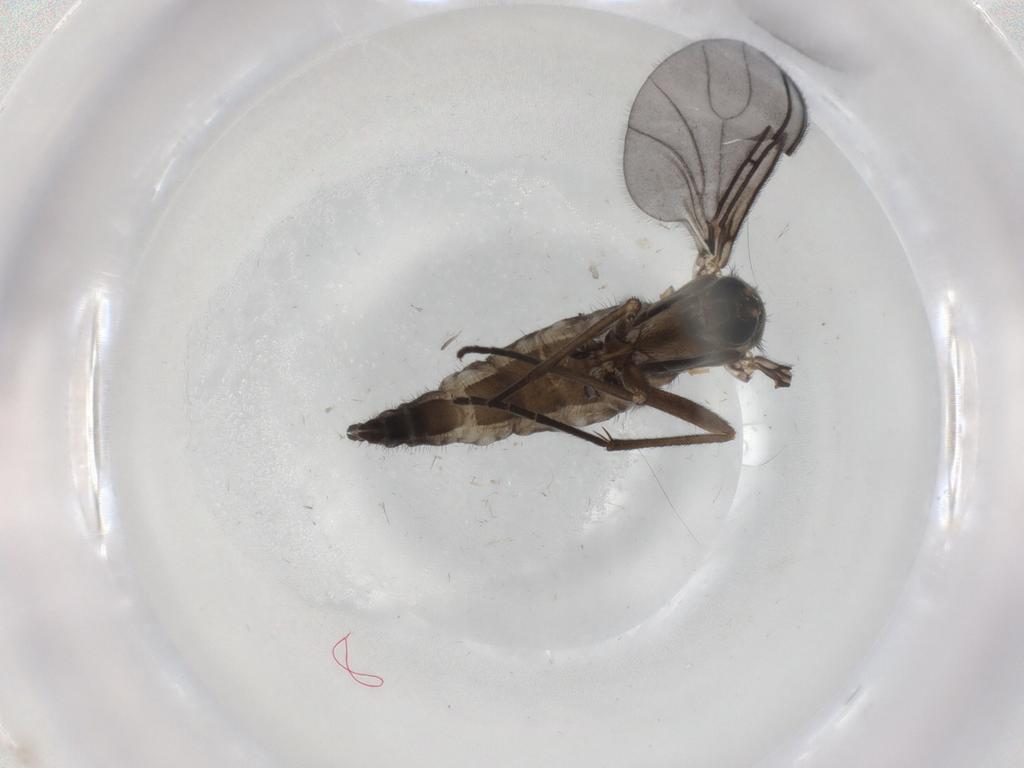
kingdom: Animalia
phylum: Arthropoda
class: Insecta
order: Diptera
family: Sciaridae
